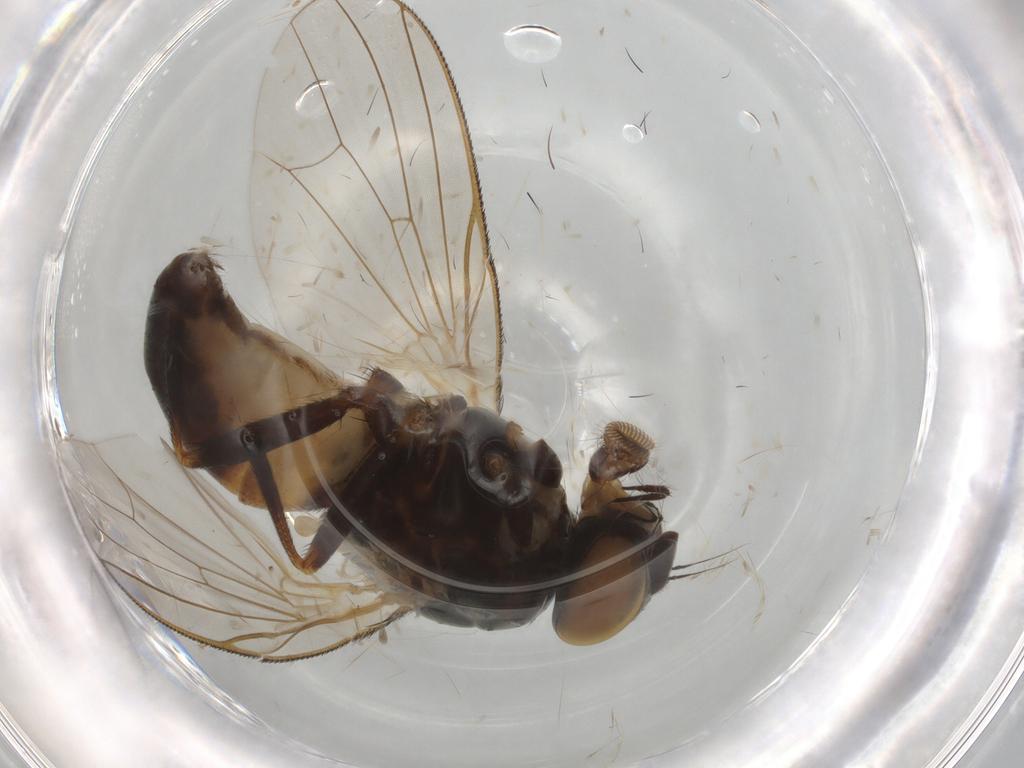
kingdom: Animalia
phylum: Arthropoda
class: Insecta
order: Diptera
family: Fannia
